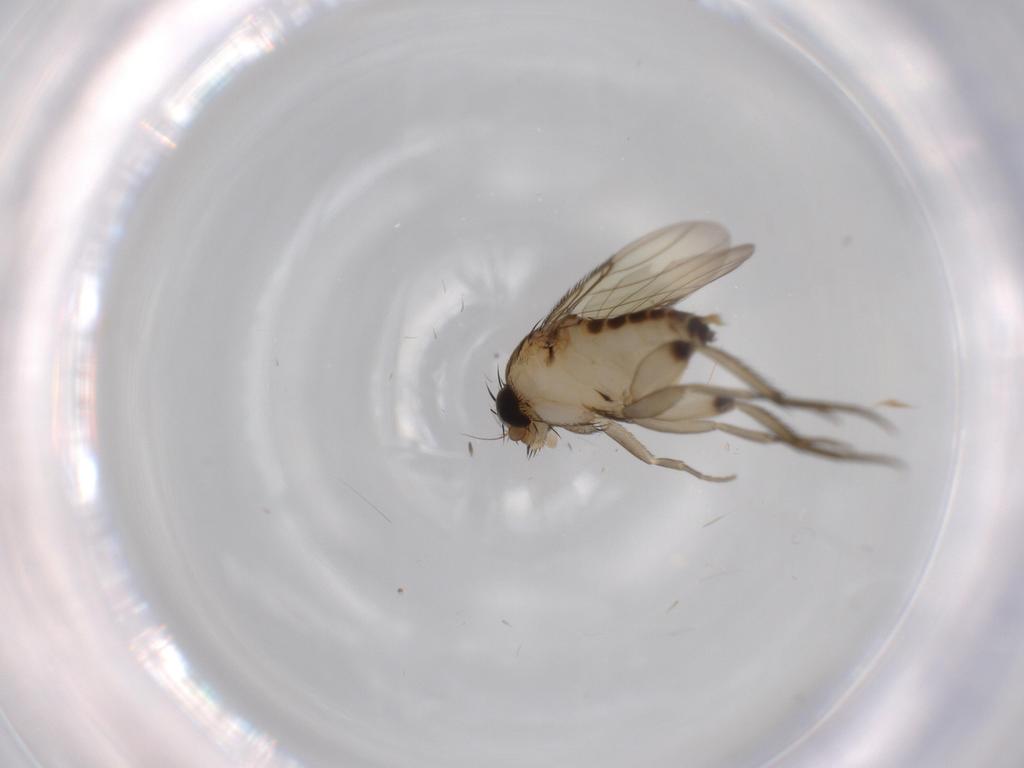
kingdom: Animalia
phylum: Arthropoda
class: Insecta
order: Diptera
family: Phoridae
